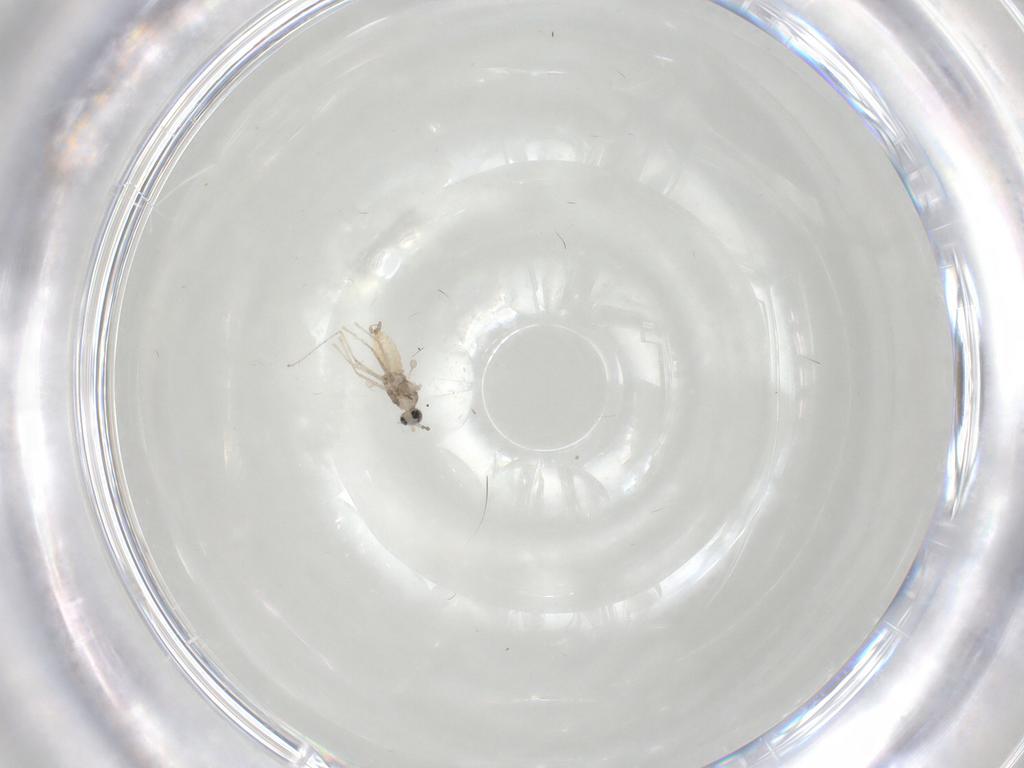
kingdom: Animalia
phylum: Arthropoda
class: Insecta
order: Diptera
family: Cecidomyiidae
